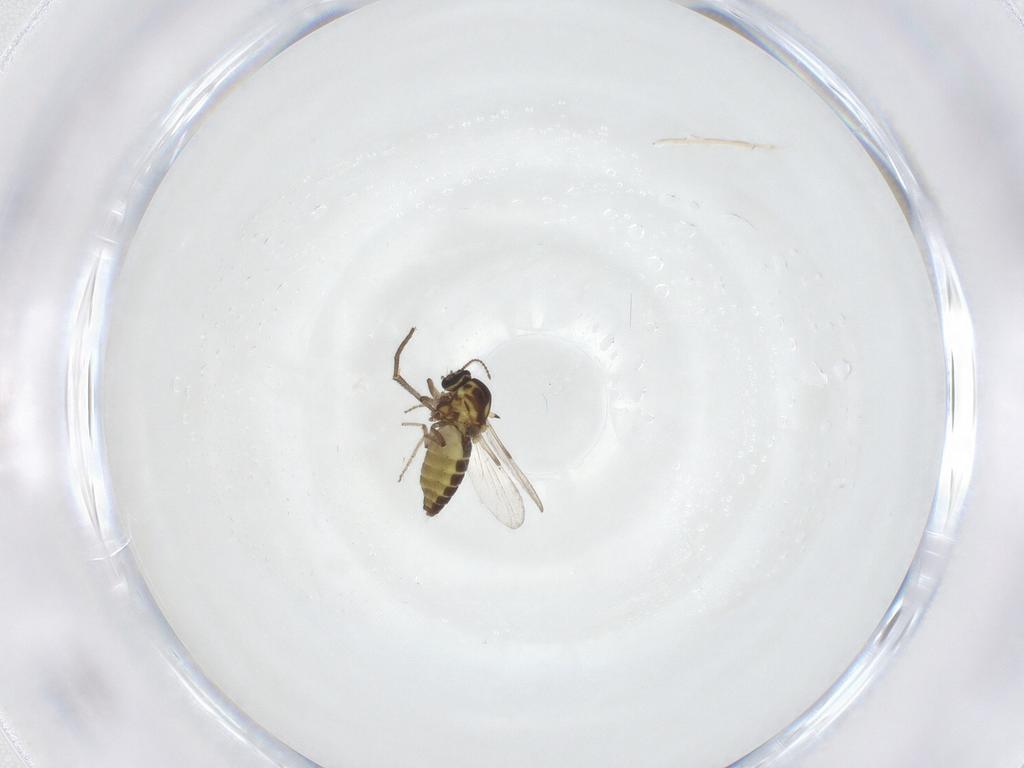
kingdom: Animalia
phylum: Arthropoda
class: Insecta
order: Diptera
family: Ceratopogonidae
